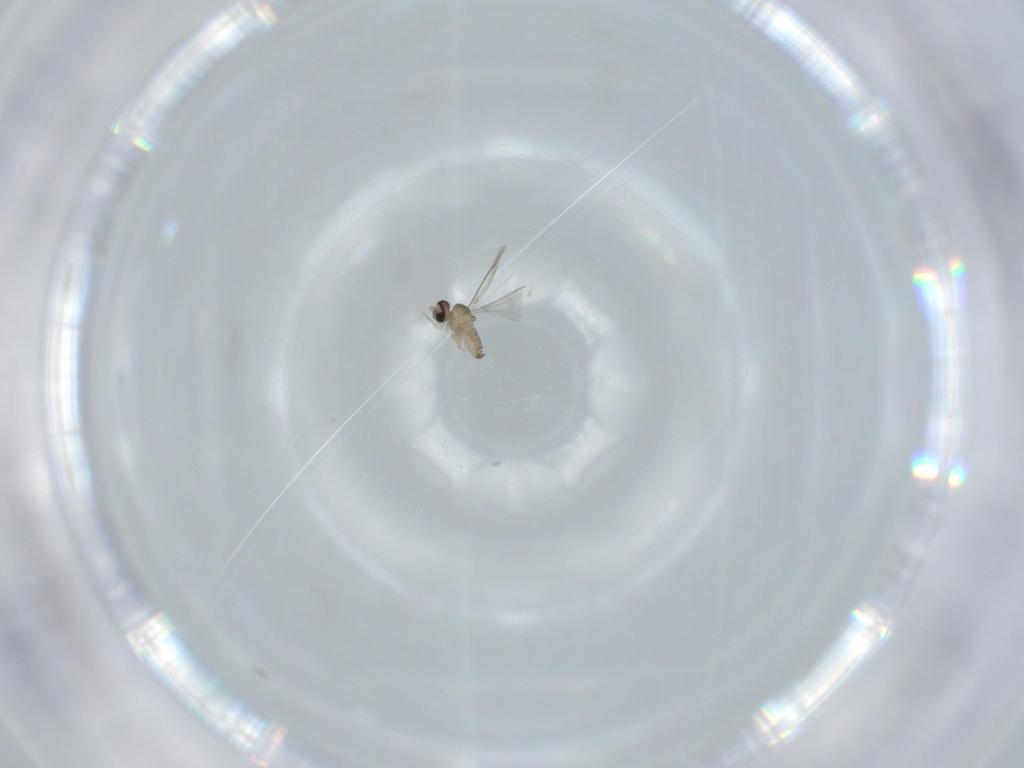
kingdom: Animalia
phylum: Arthropoda
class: Insecta
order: Diptera
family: Cecidomyiidae
